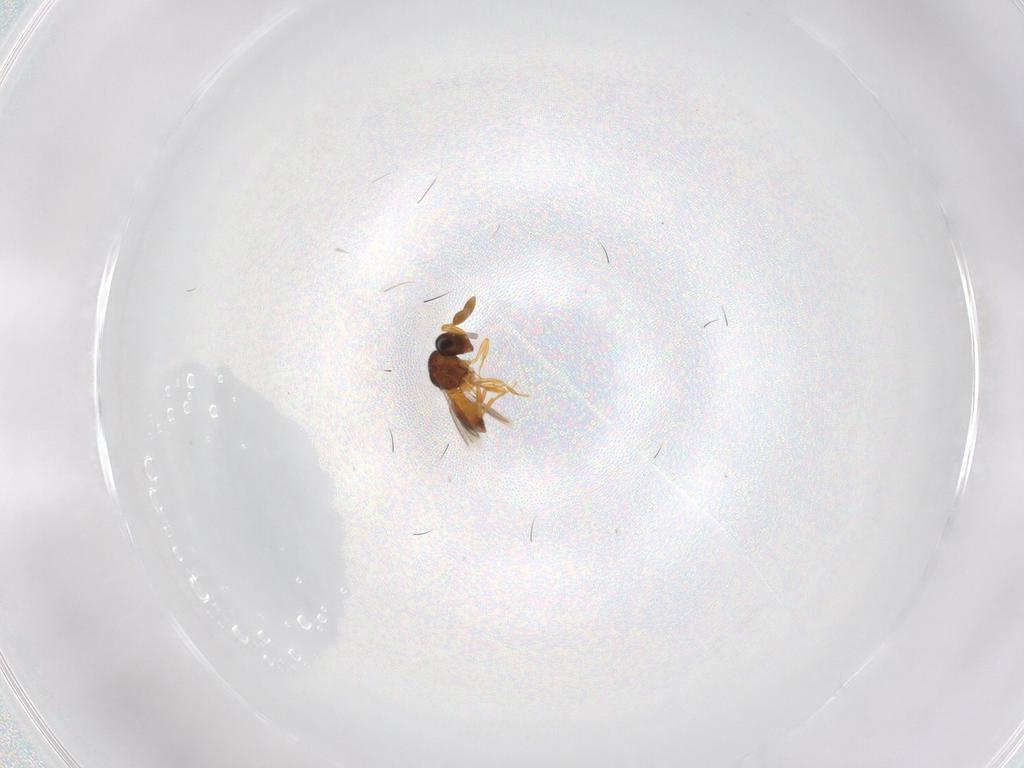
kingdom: Animalia
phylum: Arthropoda
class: Insecta
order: Hymenoptera
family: Scelionidae
